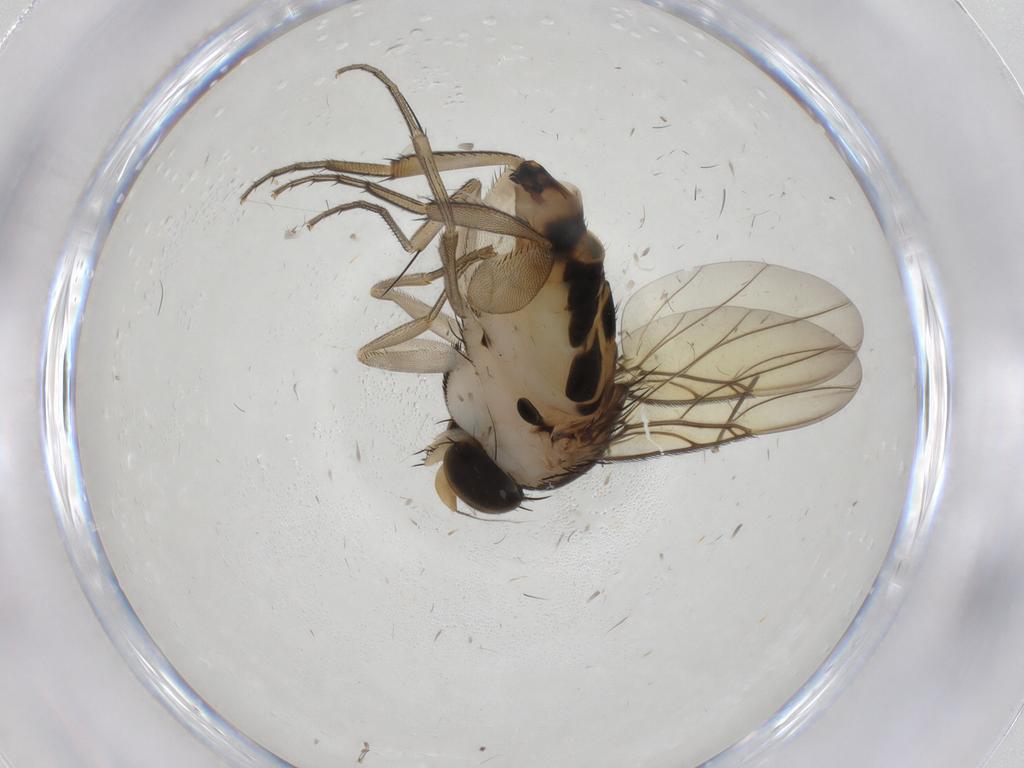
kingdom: Animalia
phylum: Arthropoda
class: Insecta
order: Diptera
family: Phoridae
